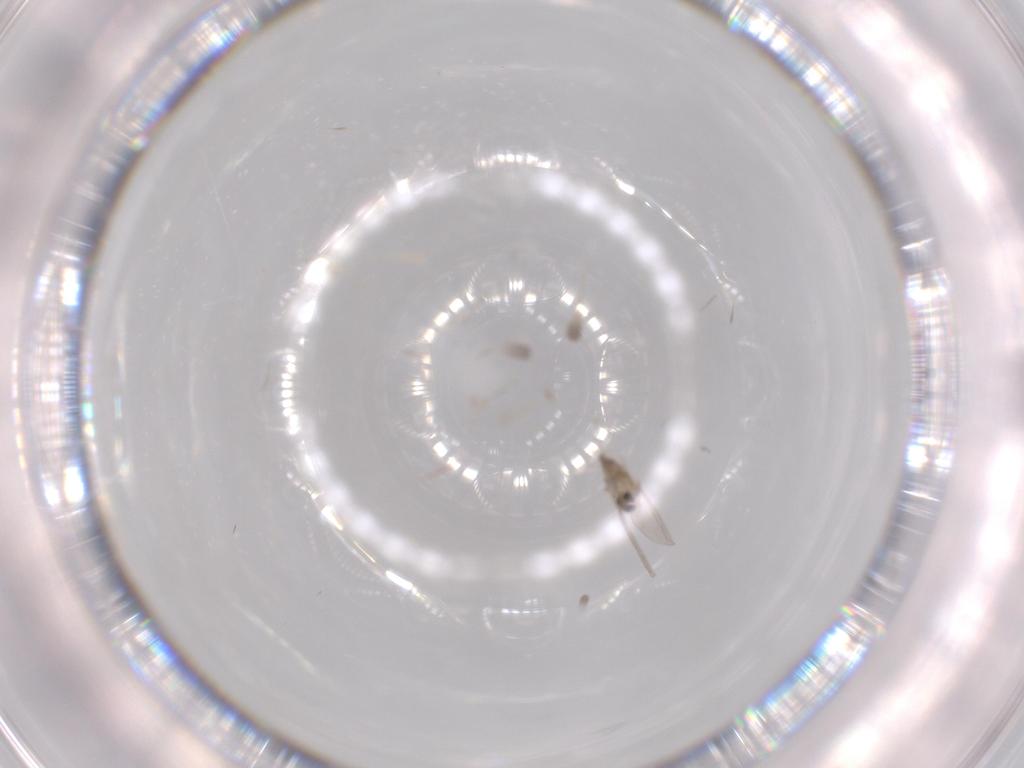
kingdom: Animalia
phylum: Arthropoda
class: Insecta
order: Diptera
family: Cecidomyiidae
